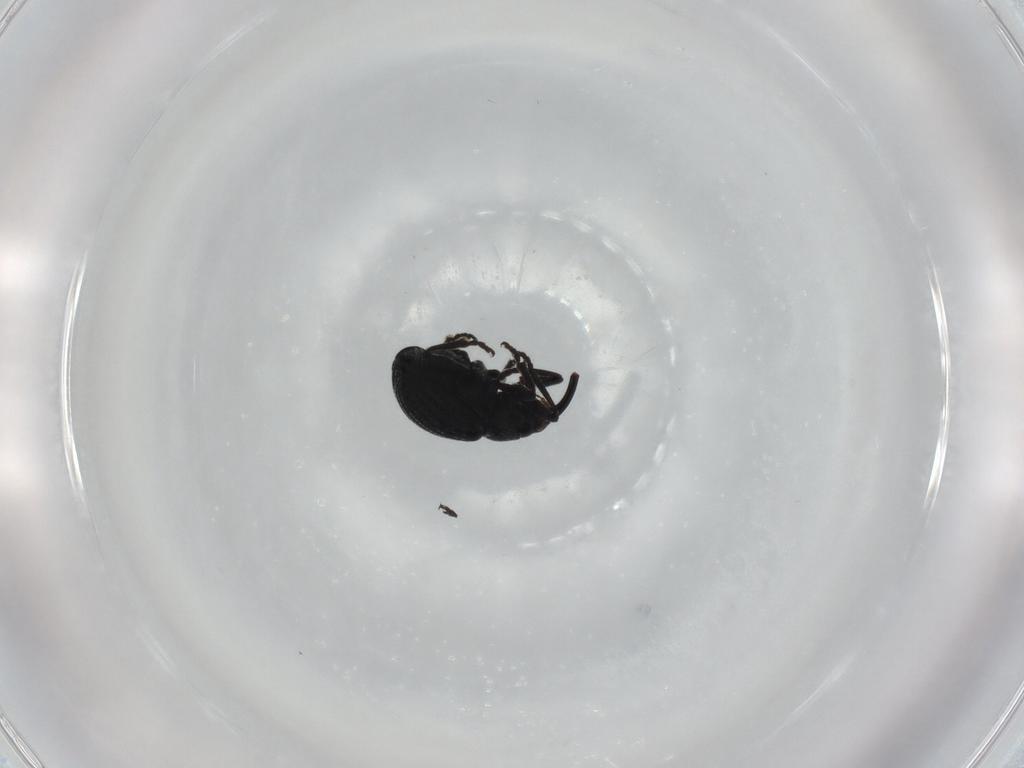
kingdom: Animalia
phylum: Arthropoda
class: Insecta
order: Coleoptera
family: Brentidae
